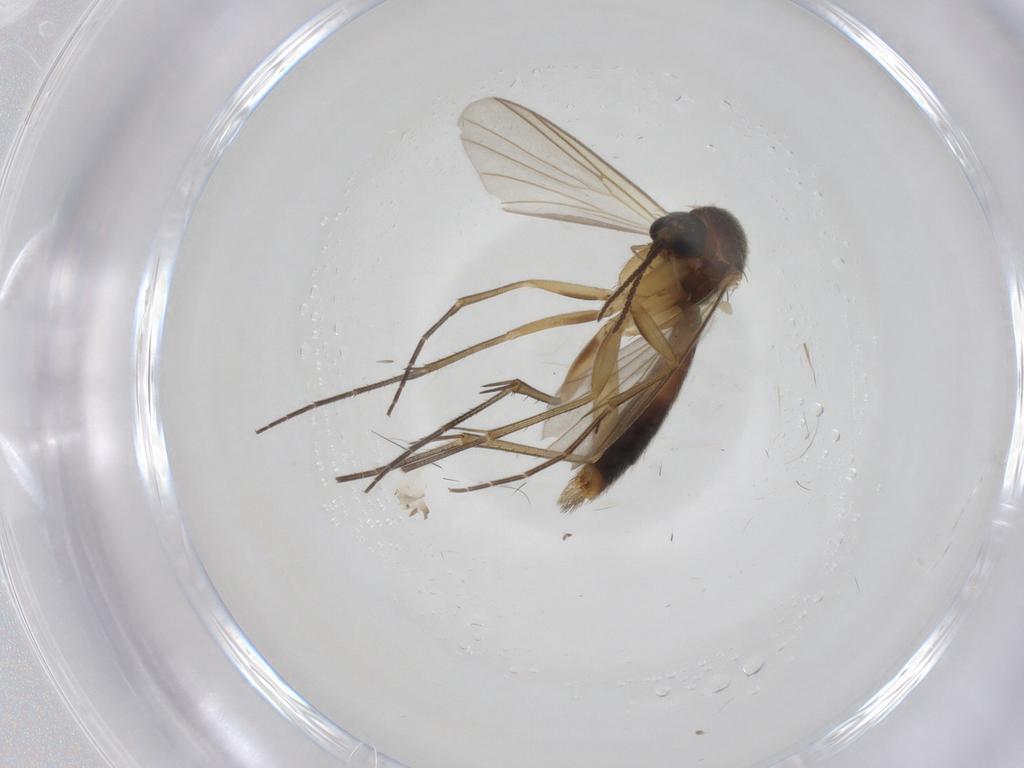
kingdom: Animalia
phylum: Arthropoda
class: Insecta
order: Diptera
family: Mycetophilidae
